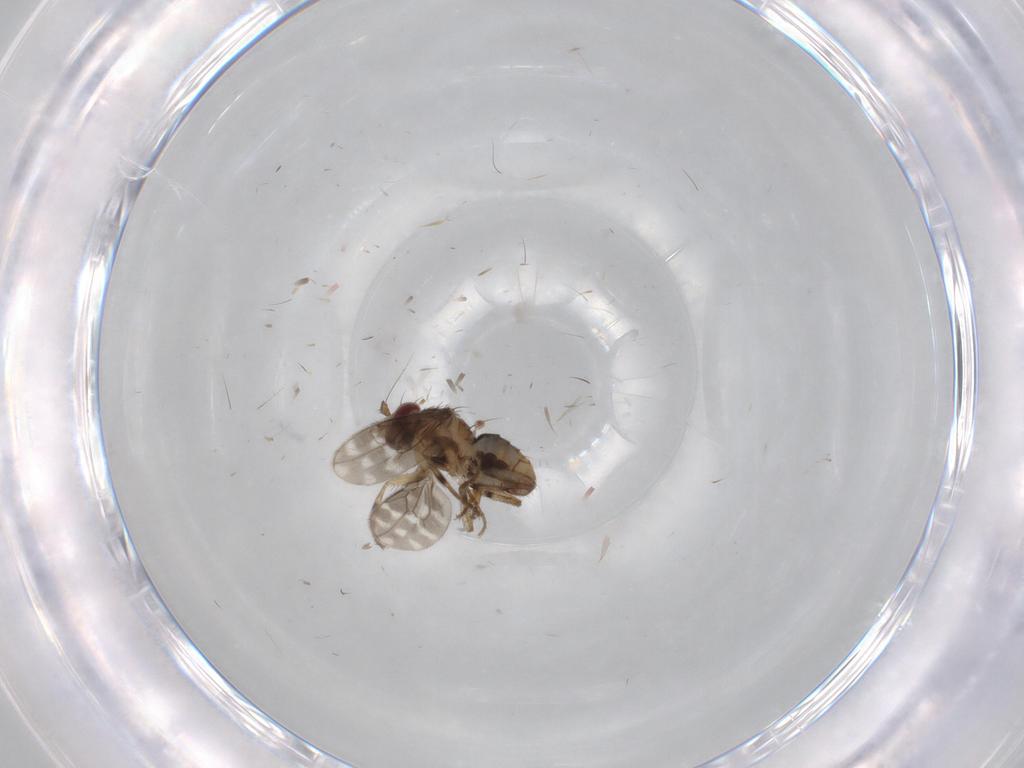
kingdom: Animalia
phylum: Arthropoda
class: Insecta
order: Diptera
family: Sphaeroceridae
